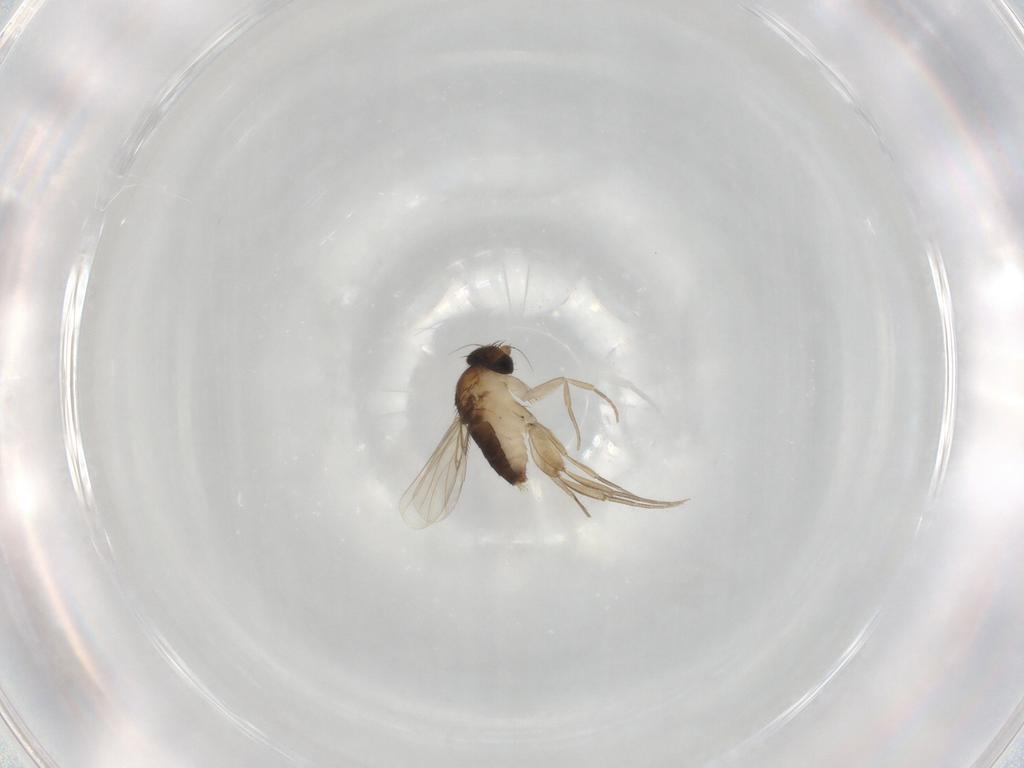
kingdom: Animalia
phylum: Arthropoda
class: Insecta
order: Diptera
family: Phoridae
